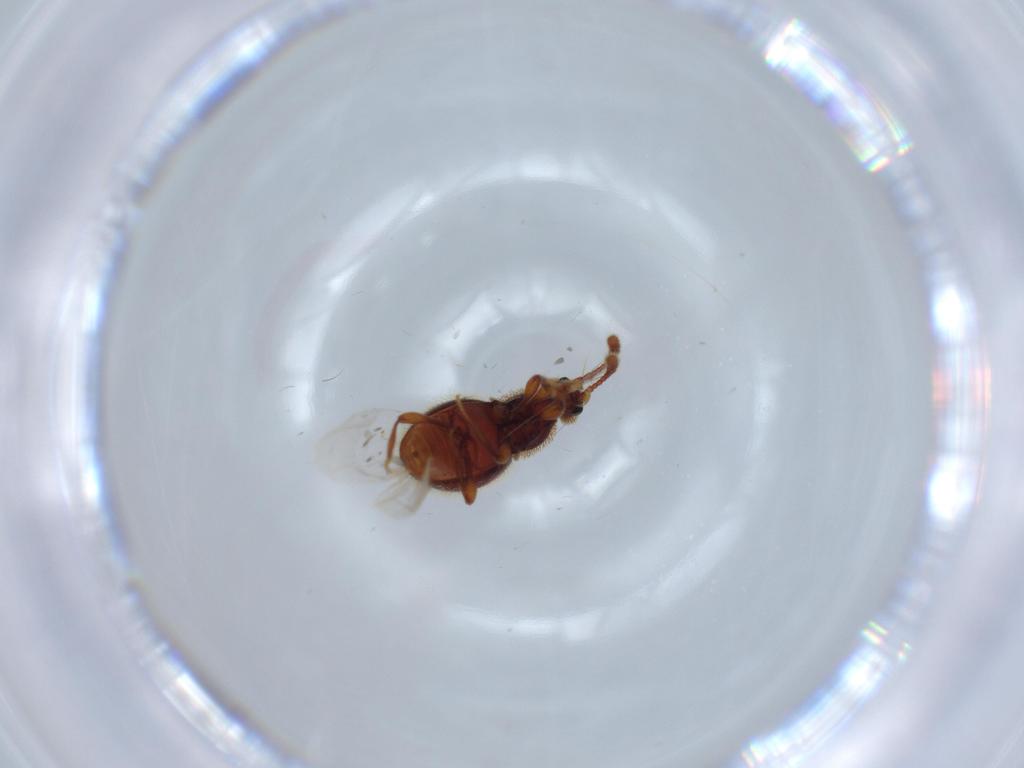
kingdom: Animalia
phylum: Arthropoda
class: Insecta
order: Coleoptera
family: Chrysomelidae
